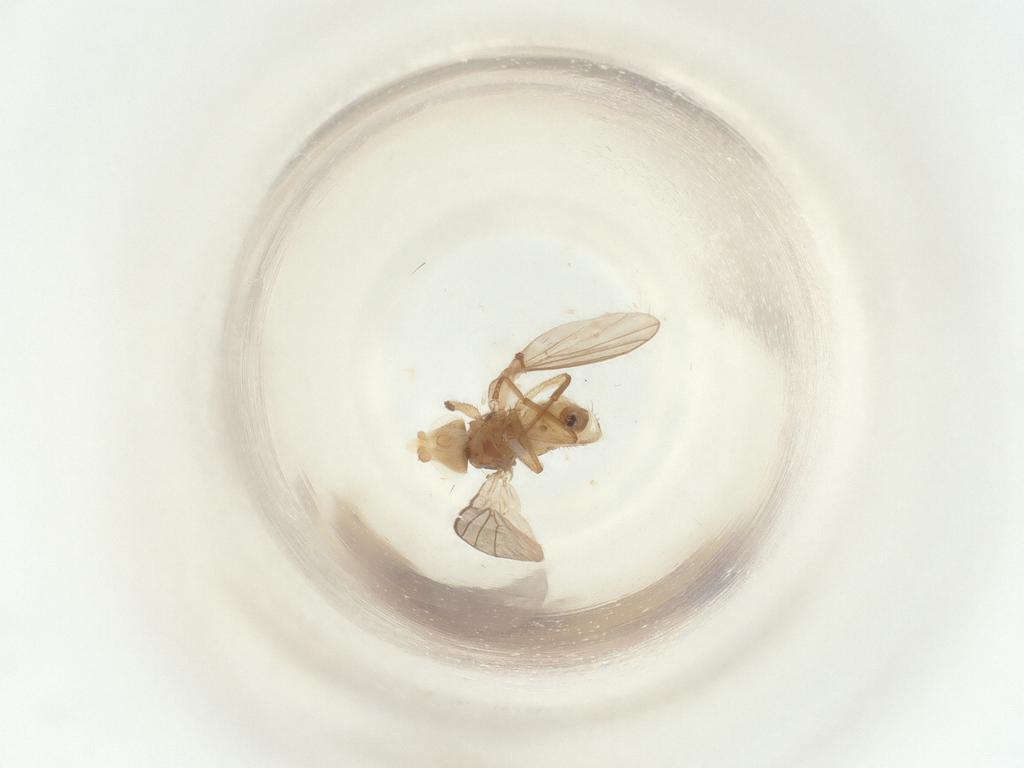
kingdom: Animalia
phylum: Arthropoda
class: Insecta
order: Diptera
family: Agromyzidae
